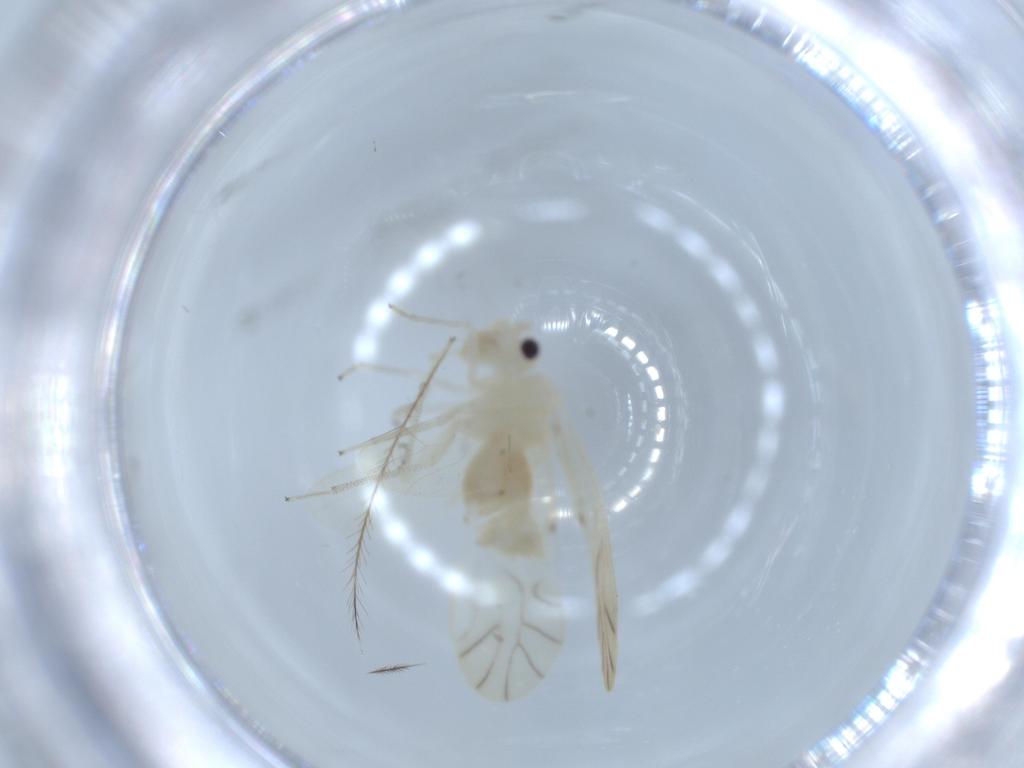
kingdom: Animalia
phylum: Arthropoda
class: Insecta
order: Psocodea
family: Caeciliusidae
